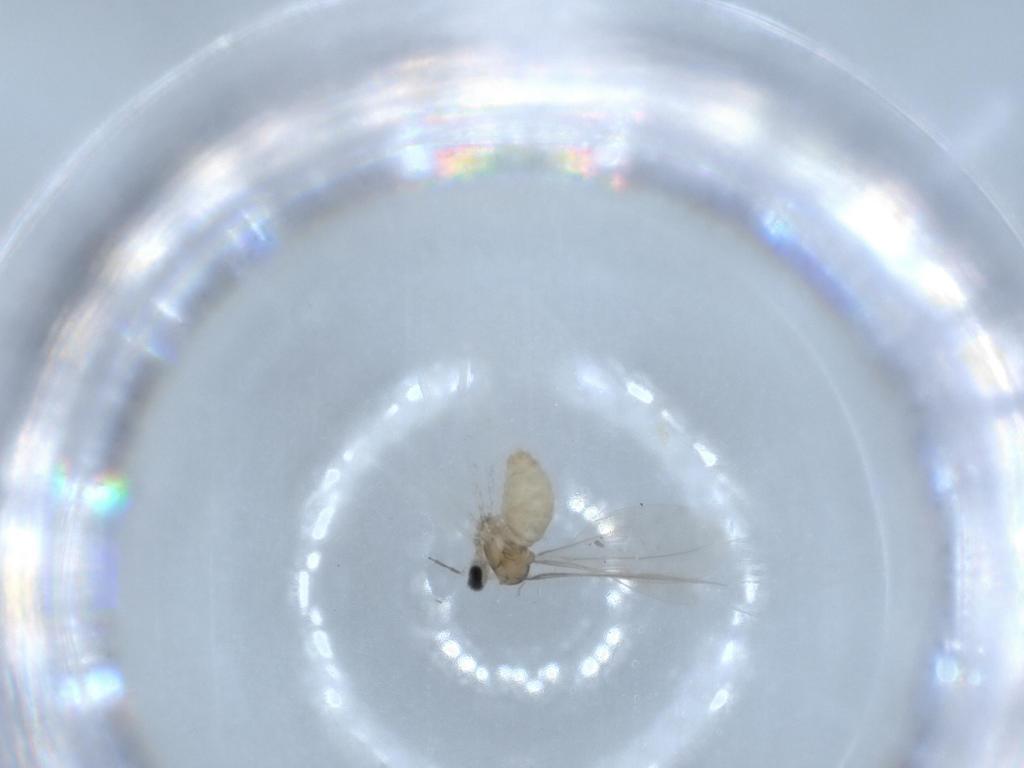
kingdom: Animalia
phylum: Arthropoda
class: Insecta
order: Diptera
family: Cecidomyiidae
